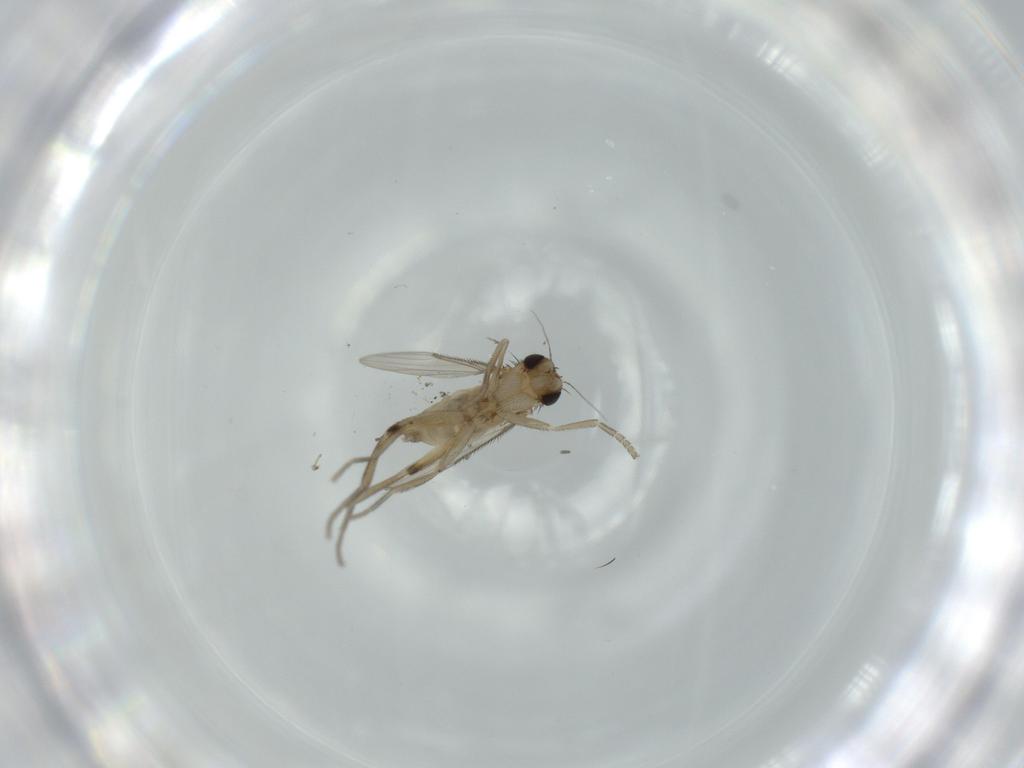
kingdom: Animalia
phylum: Arthropoda
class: Insecta
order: Diptera
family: Phoridae
